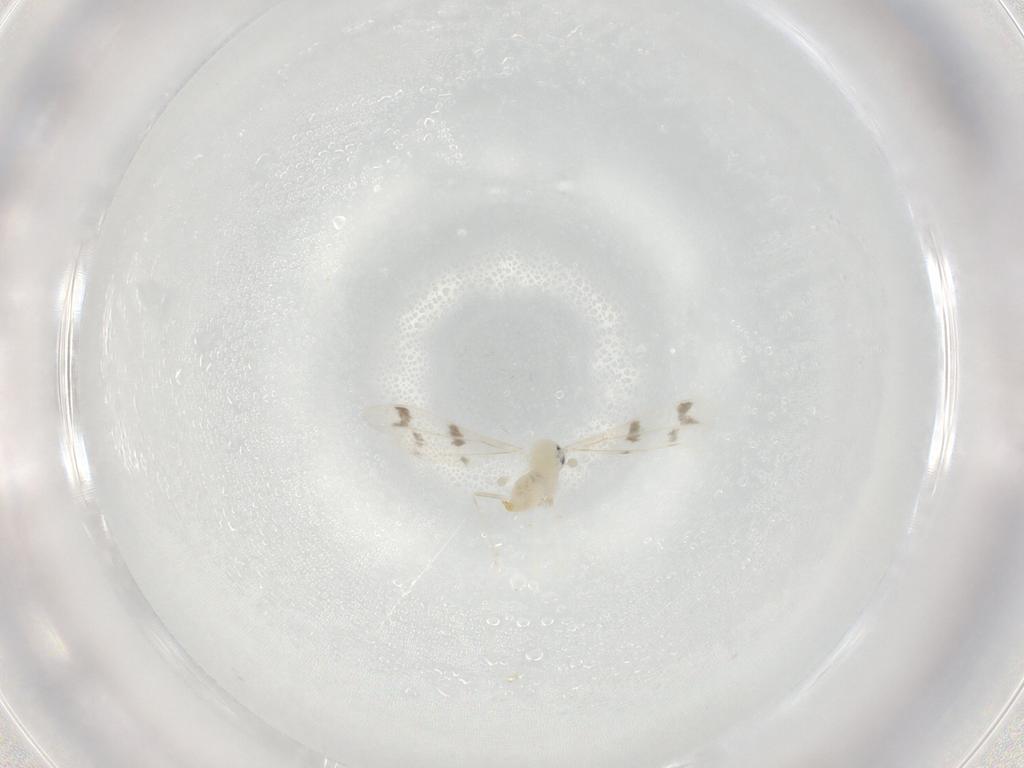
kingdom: Animalia
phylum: Arthropoda
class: Insecta
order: Diptera
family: Cecidomyiidae
